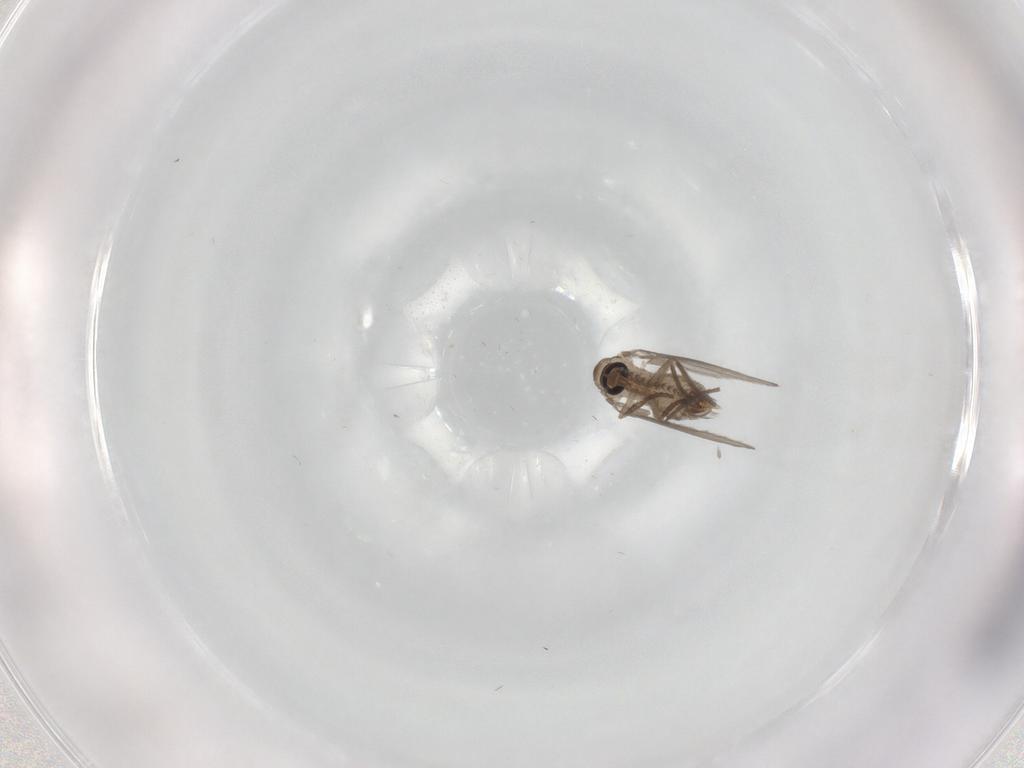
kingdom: Animalia
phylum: Arthropoda
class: Insecta
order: Diptera
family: Psychodidae
